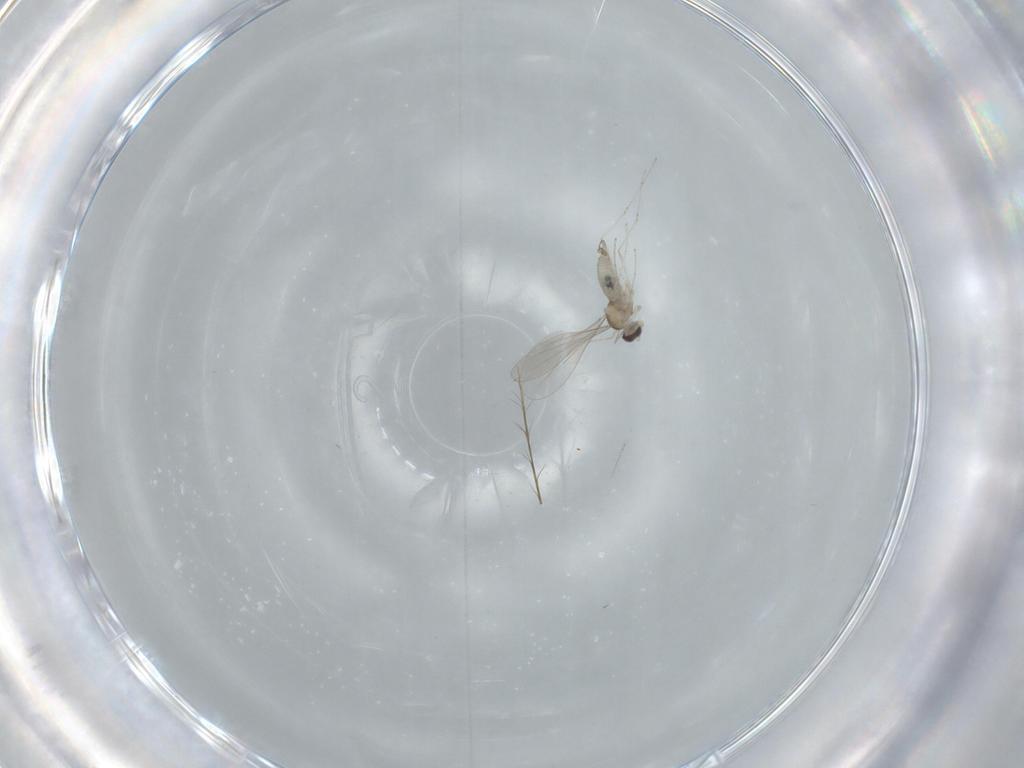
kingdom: Animalia
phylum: Arthropoda
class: Insecta
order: Diptera
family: Cecidomyiidae
